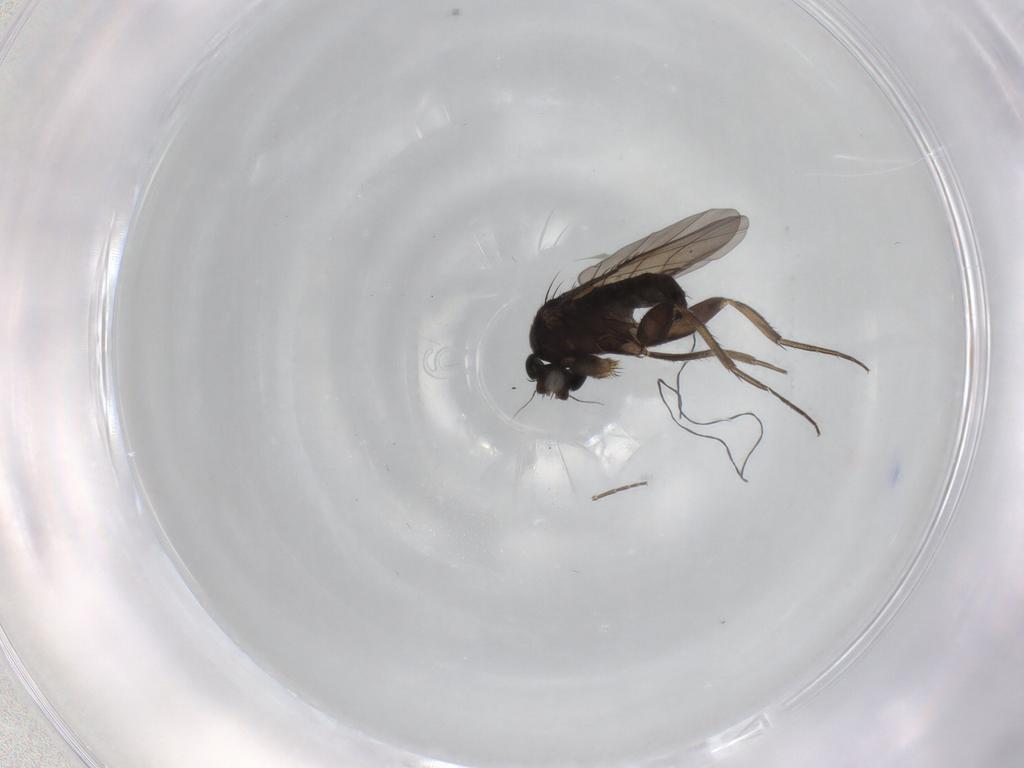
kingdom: Animalia
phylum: Arthropoda
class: Insecta
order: Diptera
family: Phoridae
